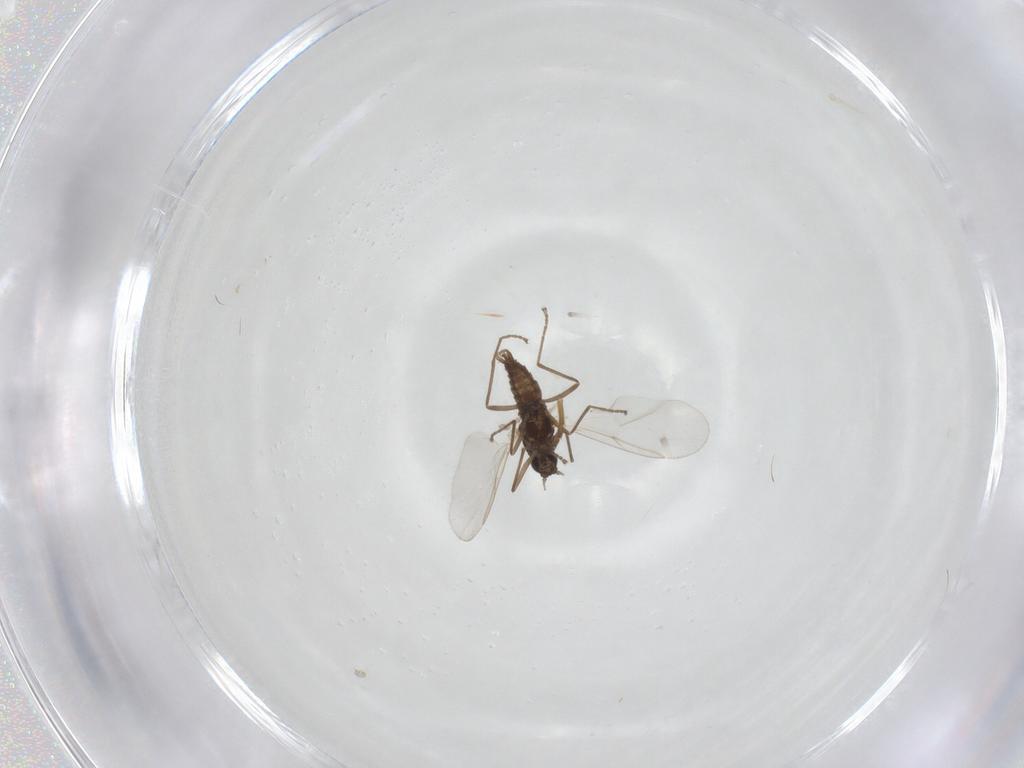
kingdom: Animalia
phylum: Arthropoda
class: Insecta
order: Diptera
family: Cecidomyiidae
